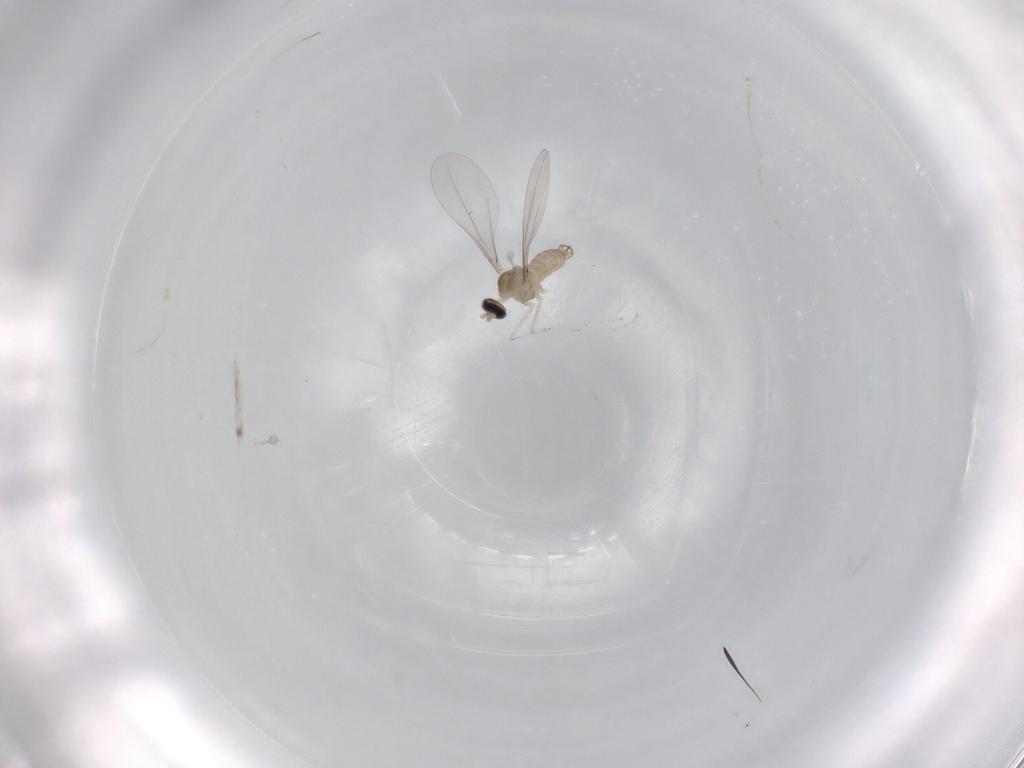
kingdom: Animalia
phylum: Arthropoda
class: Insecta
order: Diptera
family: Cecidomyiidae
